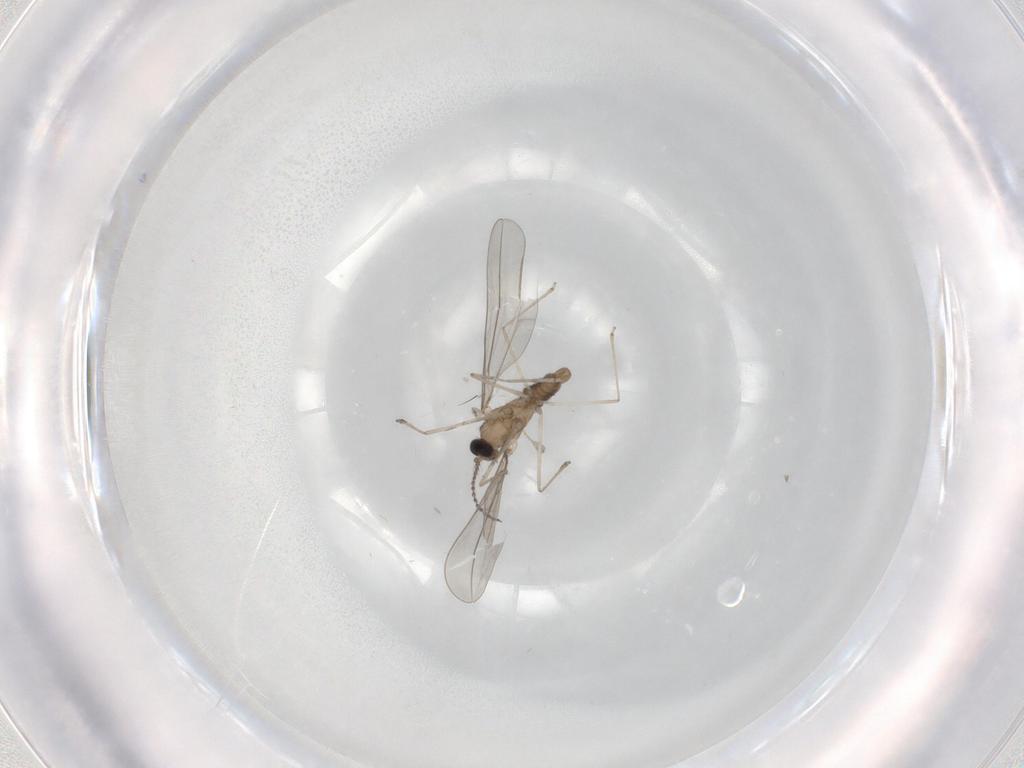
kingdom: Animalia
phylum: Arthropoda
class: Insecta
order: Diptera
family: Cecidomyiidae
